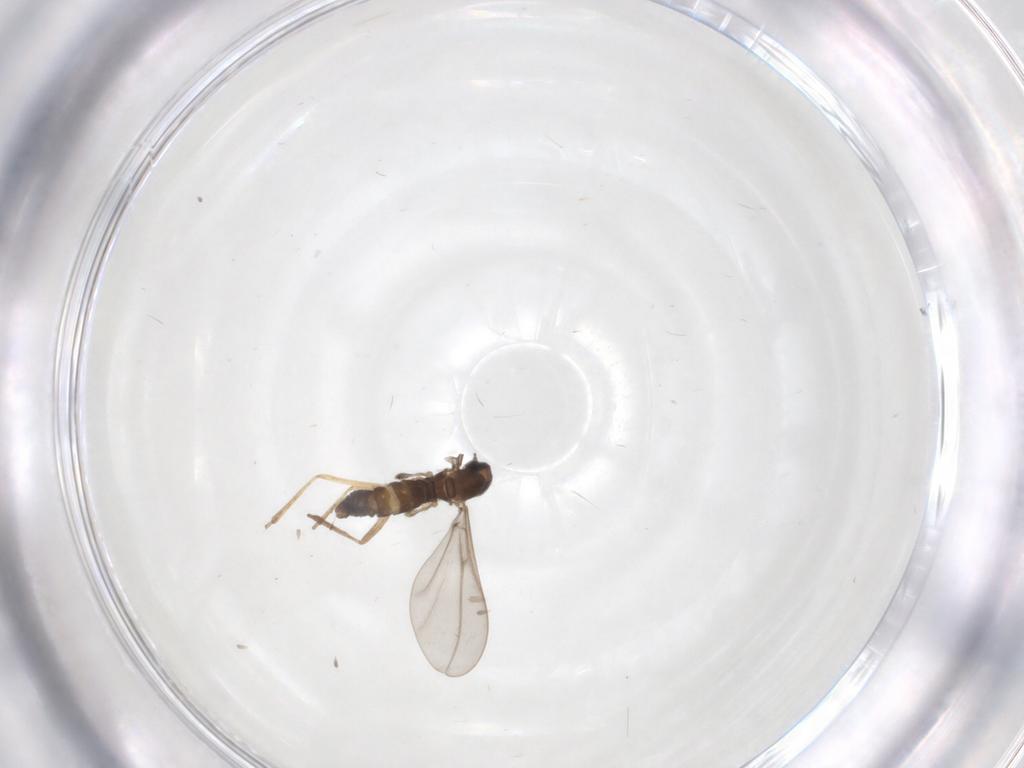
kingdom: Animalia
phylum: Arthropoda
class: Insecta
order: Diptera
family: Cecidomyiidae
